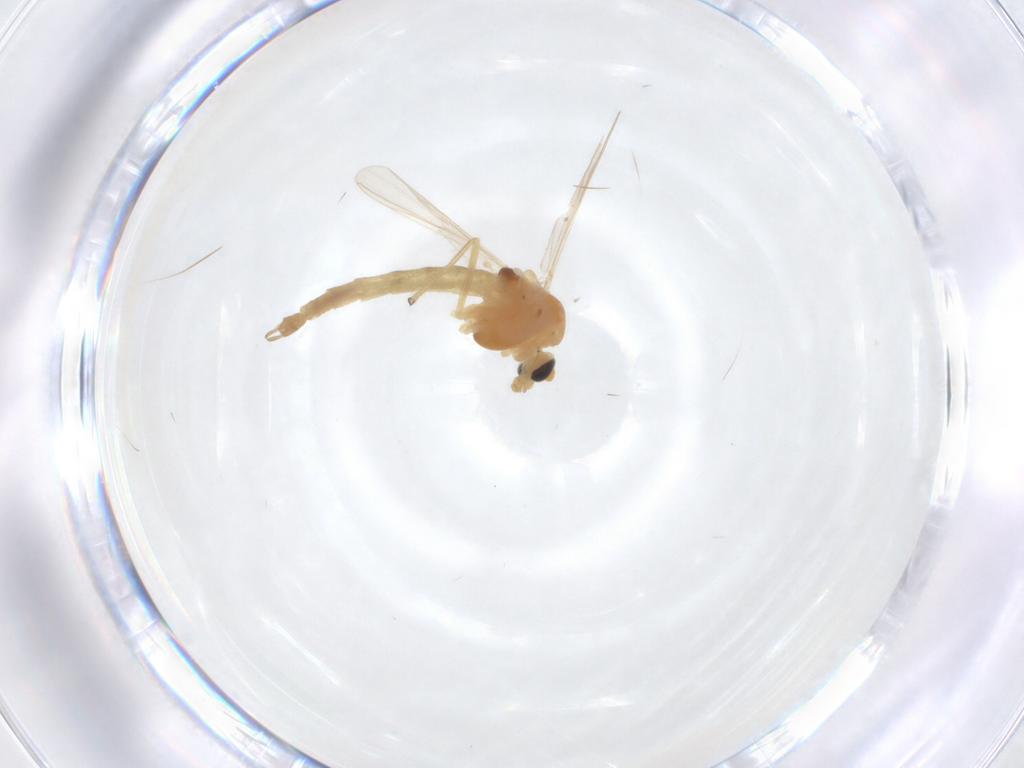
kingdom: Animalia
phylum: Arthropoda
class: Insecta
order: Diptera
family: Chironomidae
